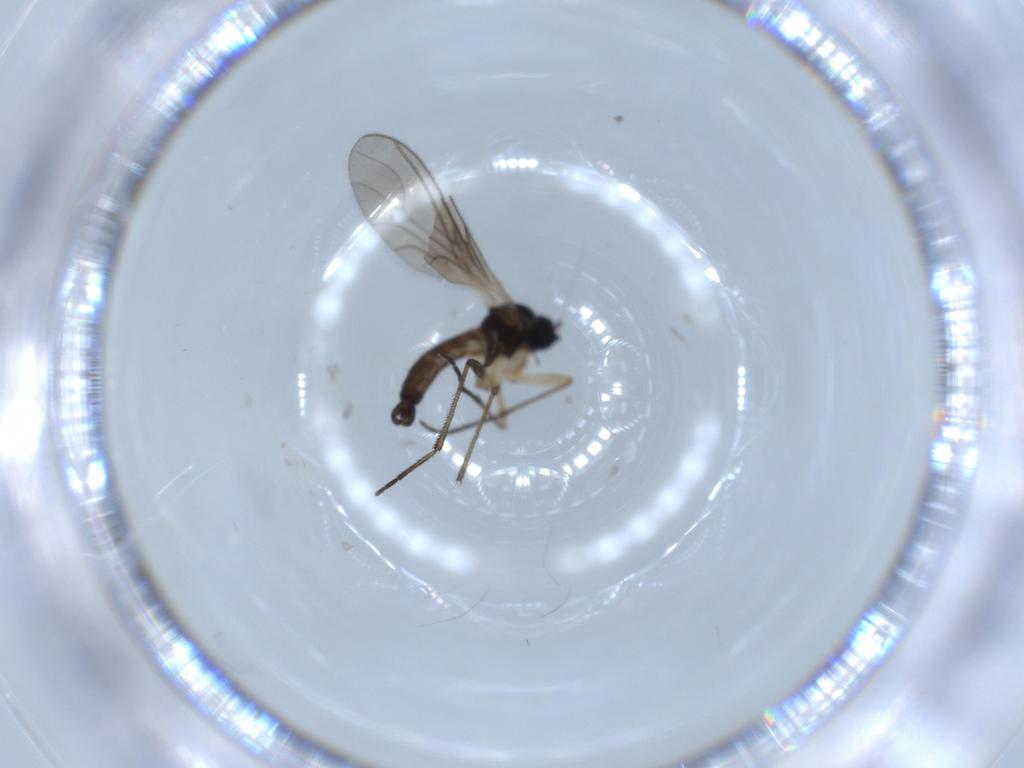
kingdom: Animalia
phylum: Arthropoda
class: Insecta
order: Diptera
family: Sciaridae
